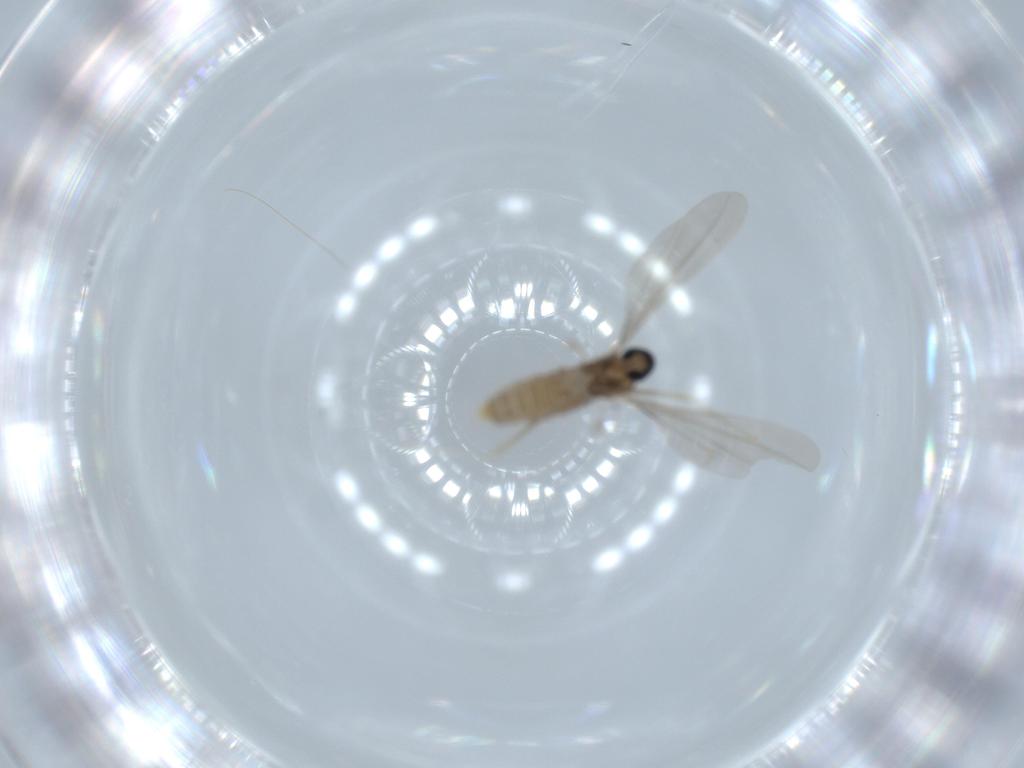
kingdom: Animalia
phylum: Arthropoda
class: Insecta
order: Diptera
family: Cecidomyiidae
